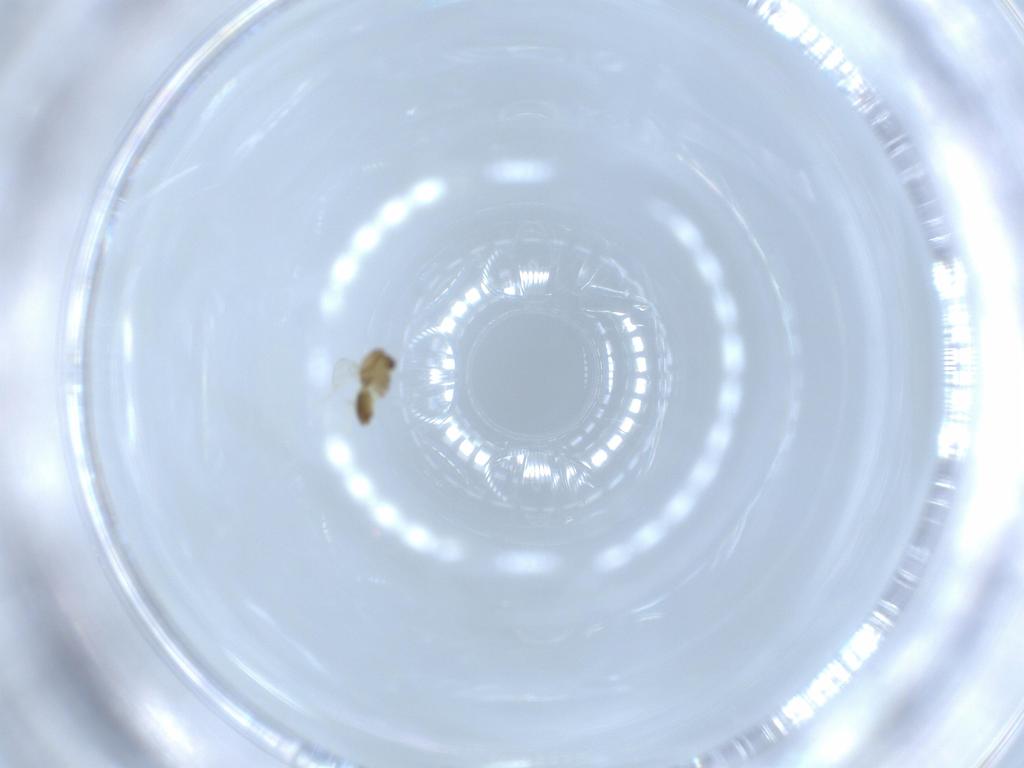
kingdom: Animalia
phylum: Arthropoda
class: Insecta
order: Diptera
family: Chironomidae
